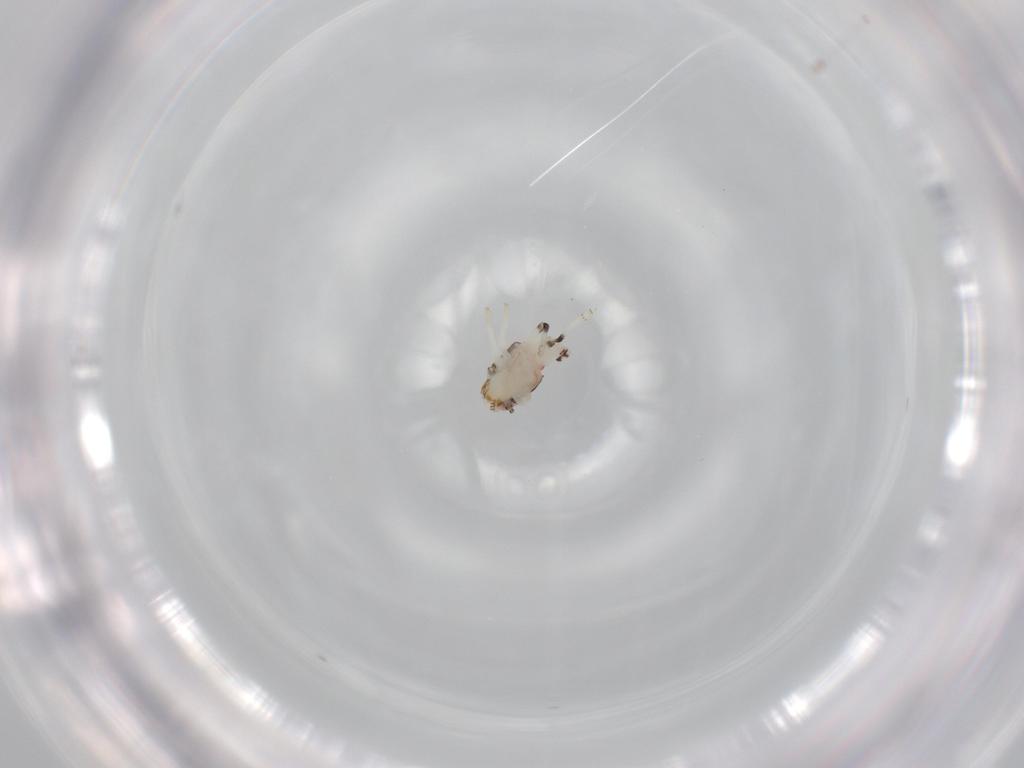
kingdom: Animalia
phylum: Arthropoda
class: Insecta
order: Hemiptera
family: Nogodinidae
